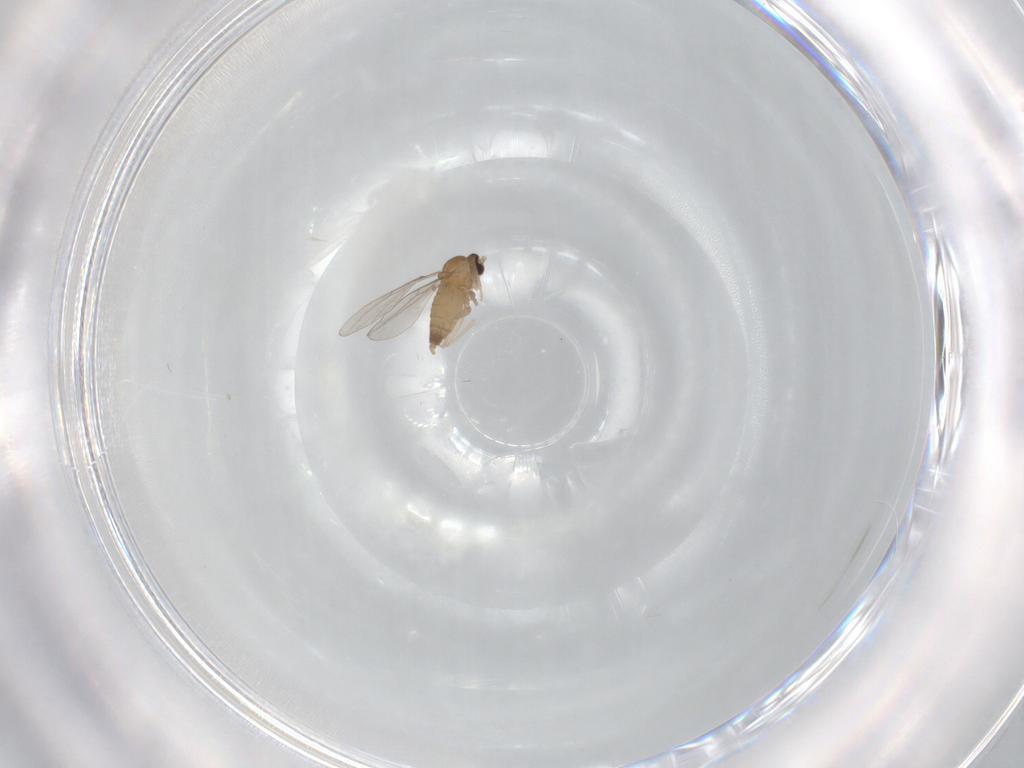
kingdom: Animalia
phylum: Arthropoda
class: Insecta
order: Diptera
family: Cecidomyiidae
